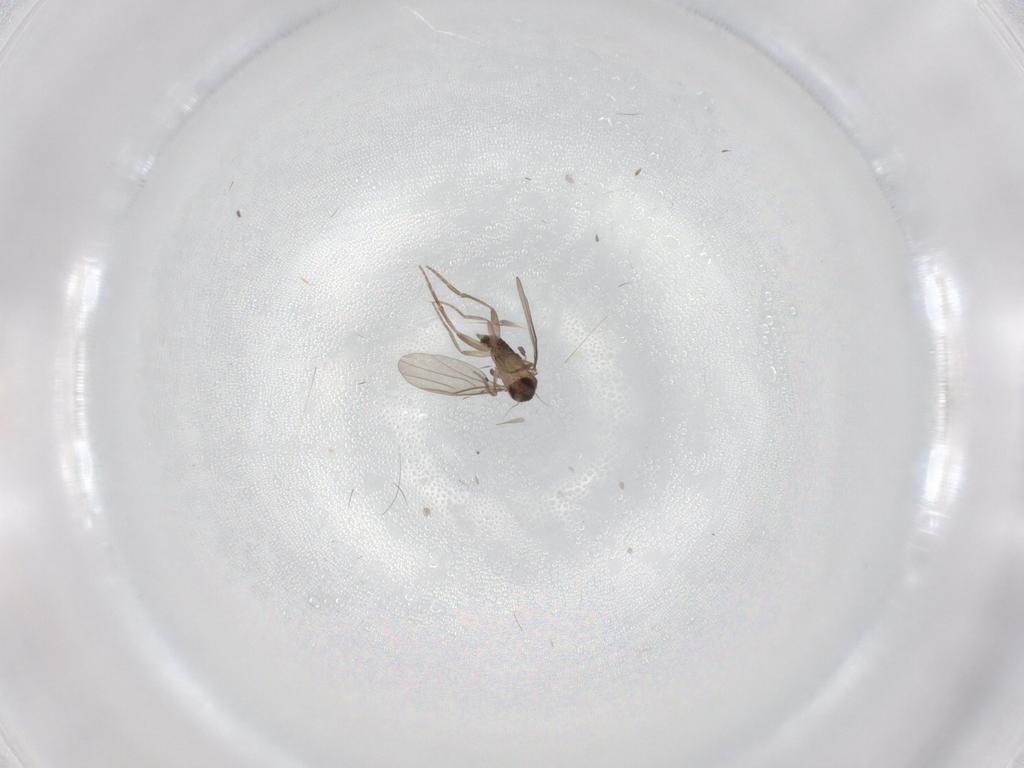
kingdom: Animalia
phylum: Arthropoda
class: Insecta
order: Diptera
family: Phoridae
